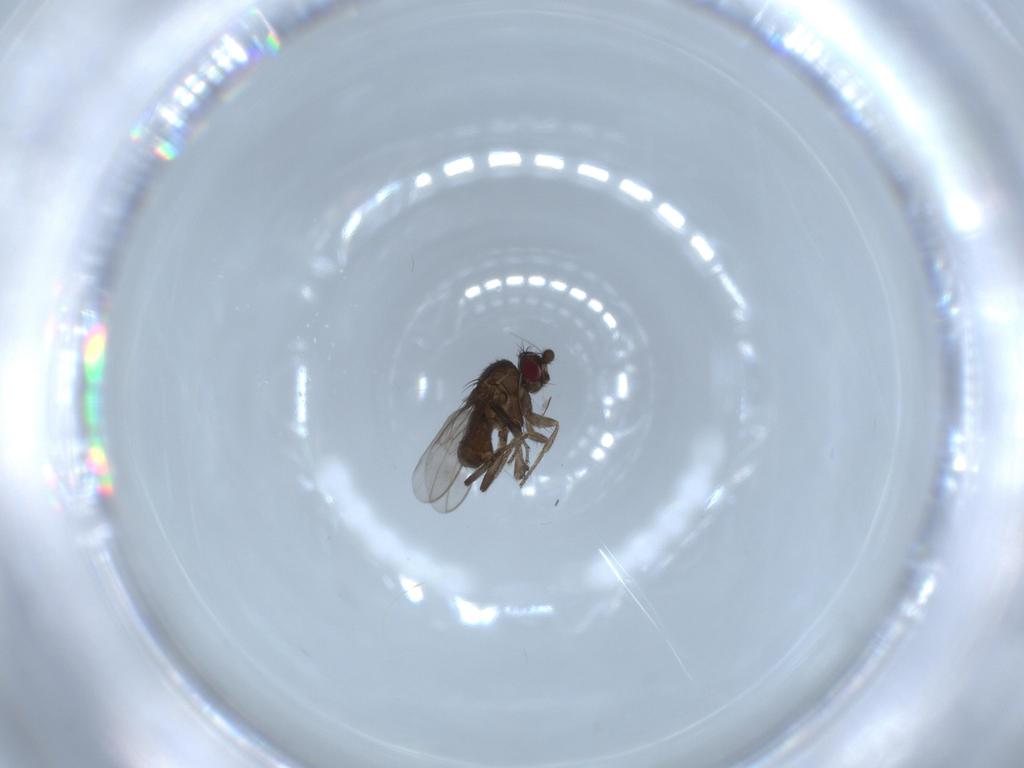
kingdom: Animalia
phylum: Arthropoda
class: Insecta
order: Diptera
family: Sphaeroceridae
